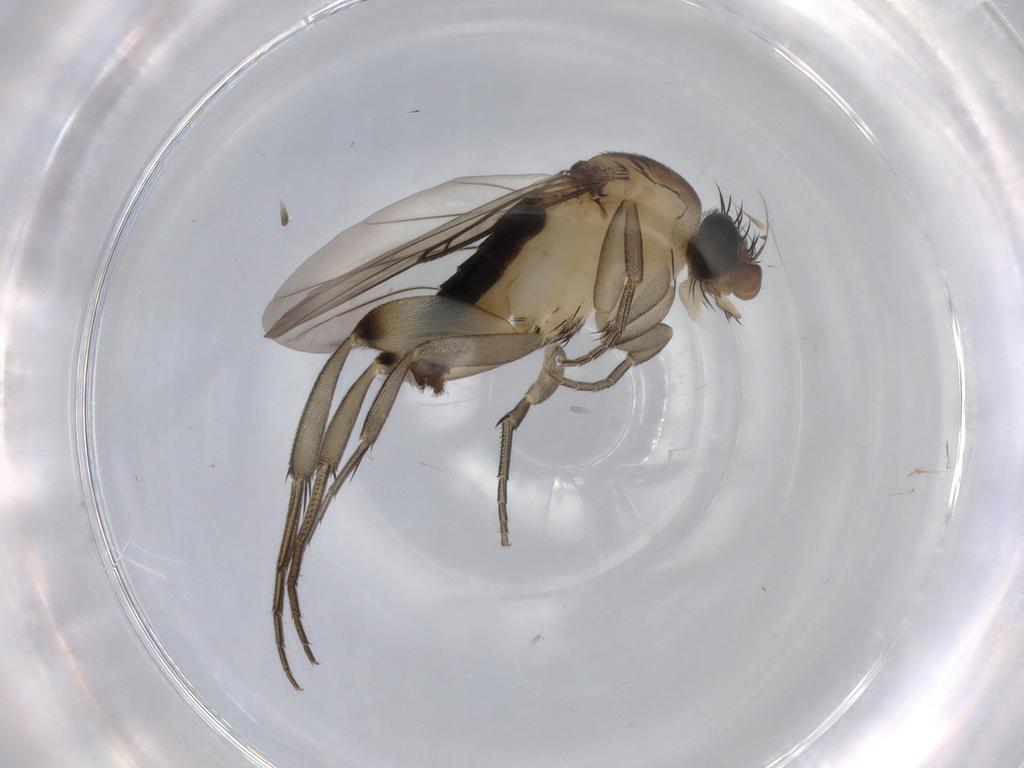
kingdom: Animalia
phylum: Arthropoda
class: Insecta
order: Diptera
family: Phoridae
